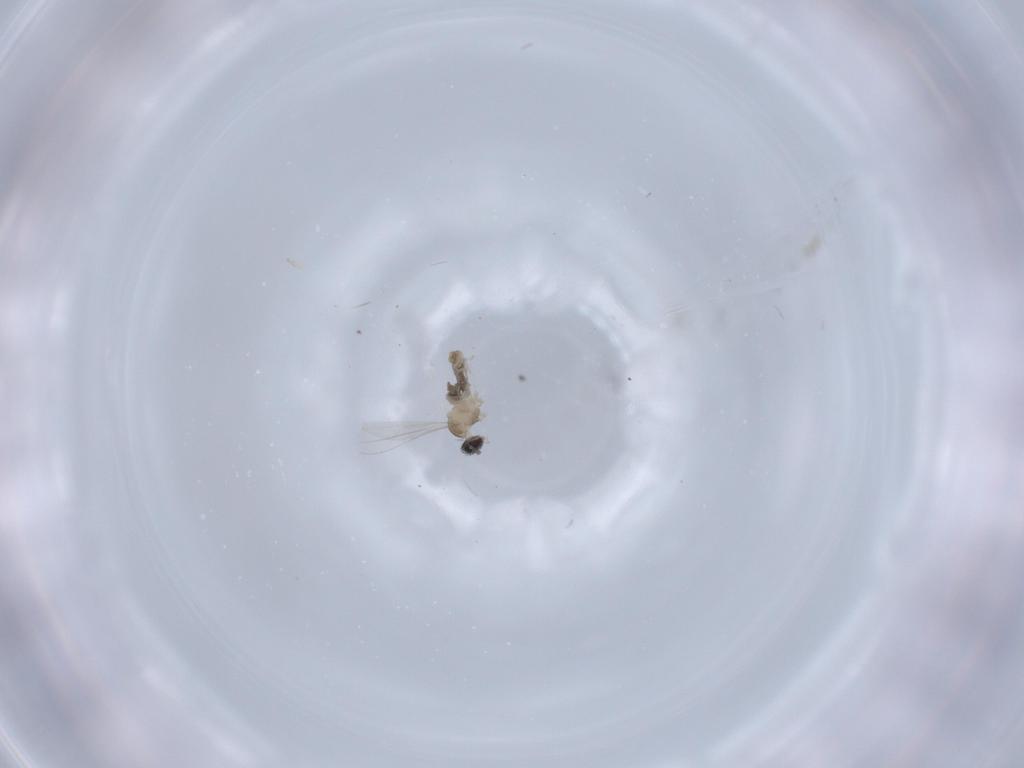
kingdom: Animalia
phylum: Arthropoda
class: Insecta
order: Diptera
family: Cecidomyiidae
